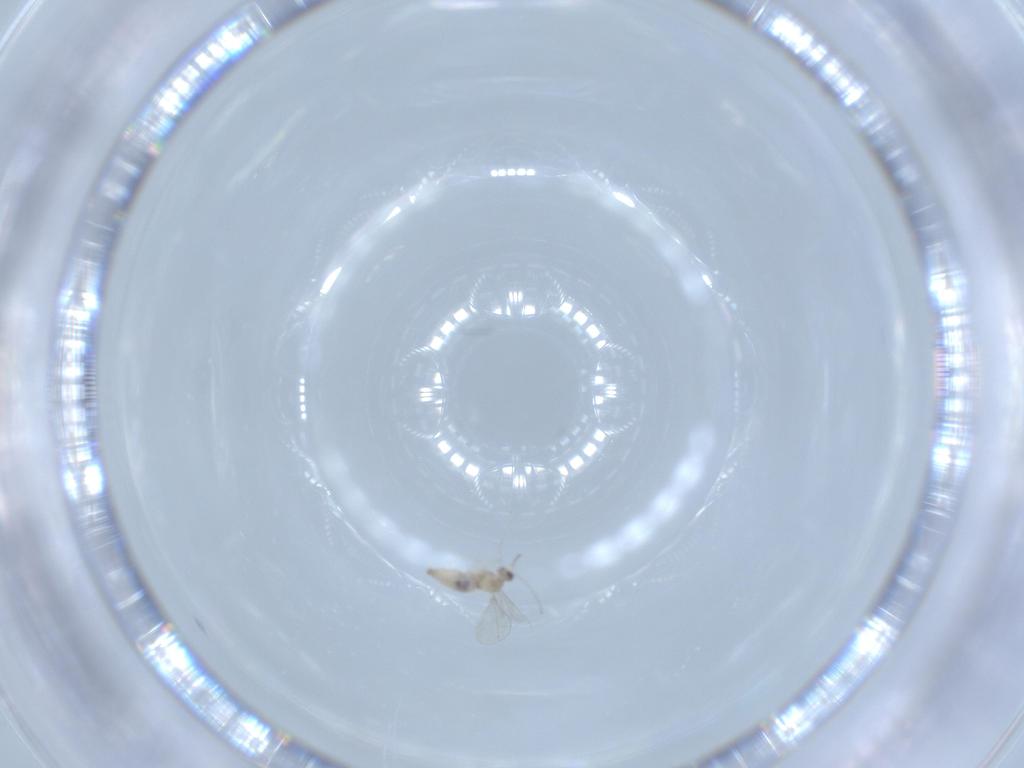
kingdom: Animalia
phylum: Arthropoda
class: Insecta
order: Diptera
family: Cecidomyiidae
